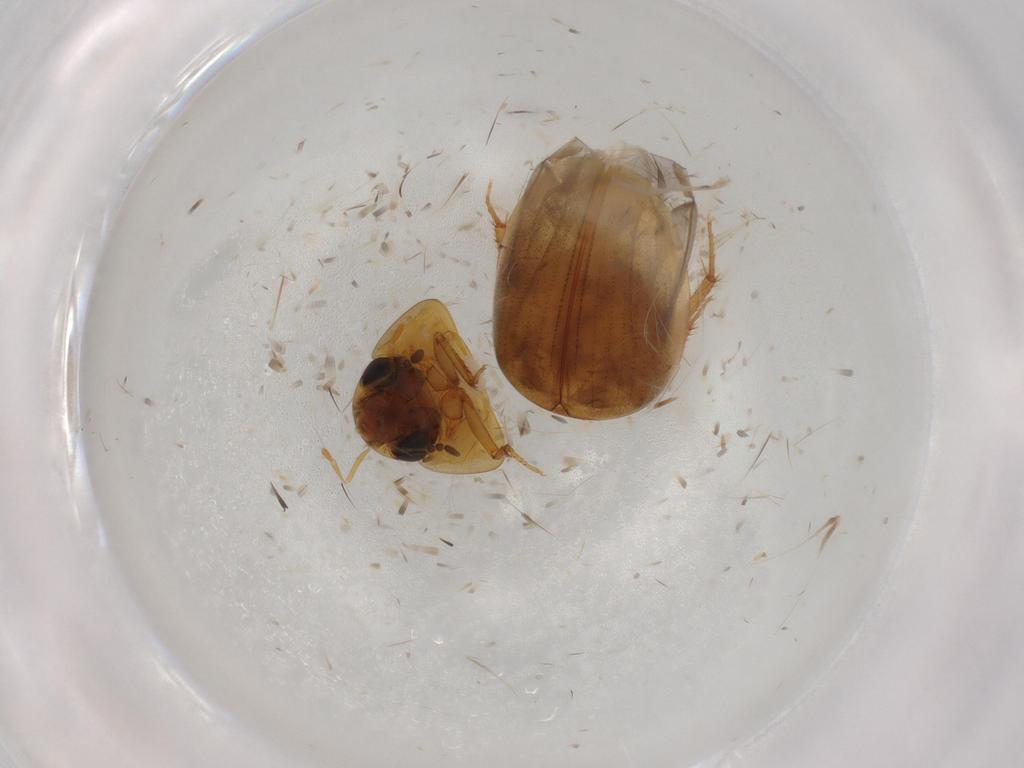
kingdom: Animalia
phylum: Arthropoda
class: Insecta
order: Coleoptera
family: Hydrophilidae
